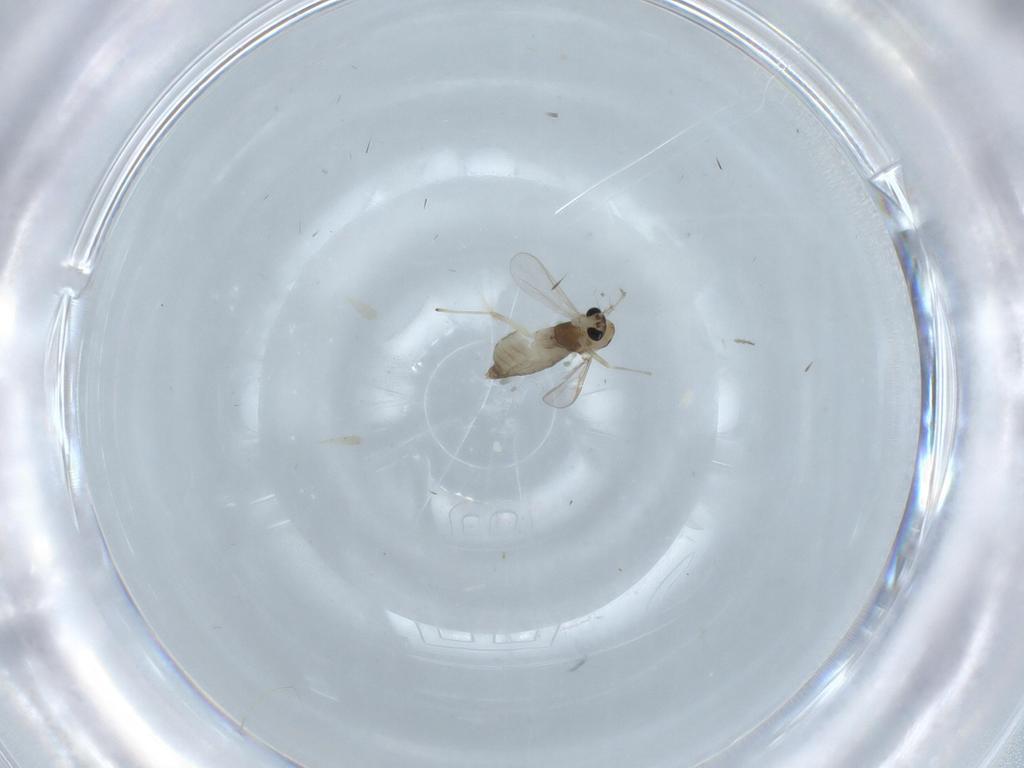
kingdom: Animalia
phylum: Arthropoda
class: Insecta
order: Diptera
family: Chironomidae
